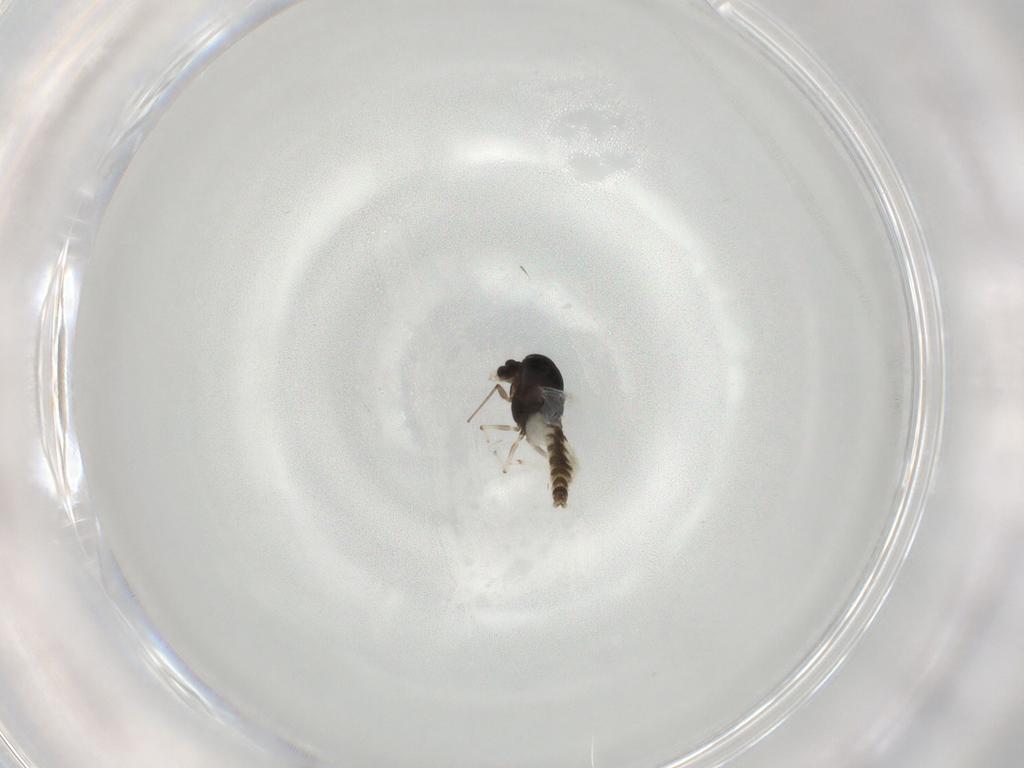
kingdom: Animalia
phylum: Arthropoda
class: Insecta
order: Diptera
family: Chironomidae
